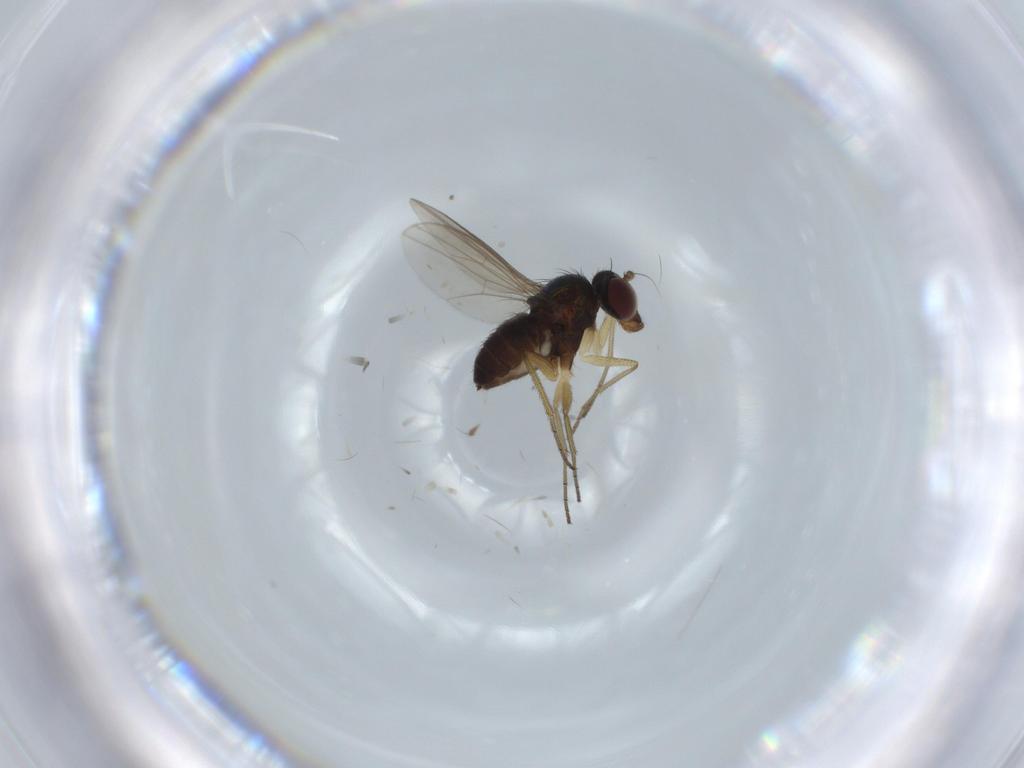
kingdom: Animalia
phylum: Arthropoda
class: Insecta
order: Diptera
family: Dolichopodidae
